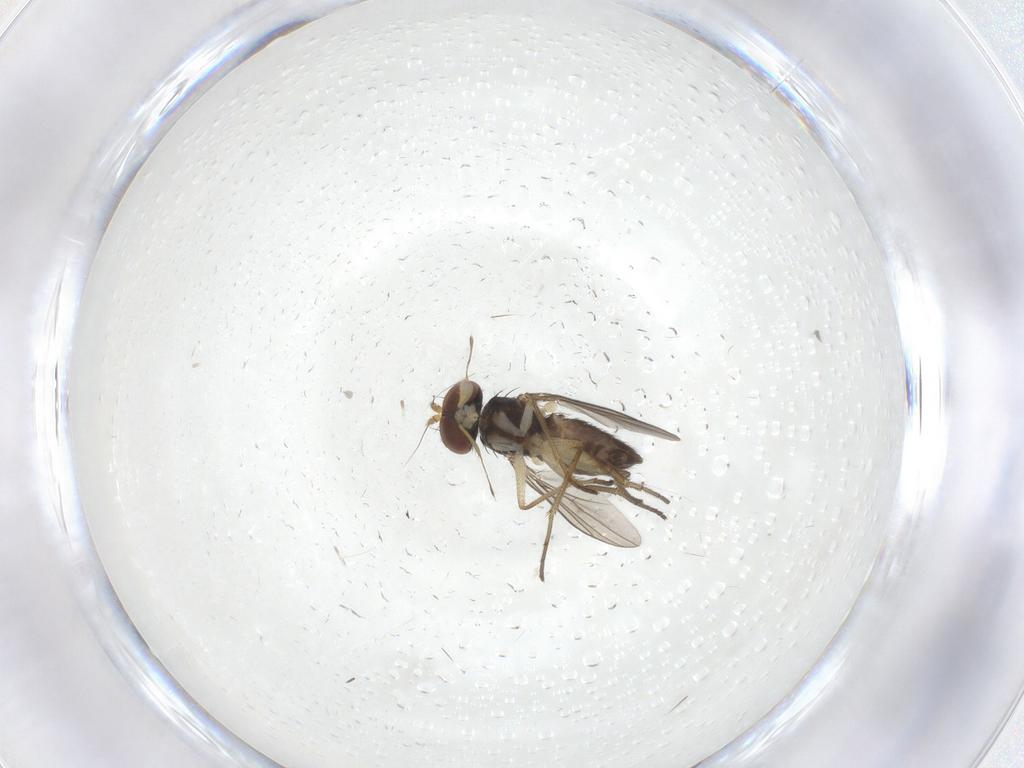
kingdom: Animalia
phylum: Arthropoda
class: Insecta
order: Diptera
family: Dolichopodidae
